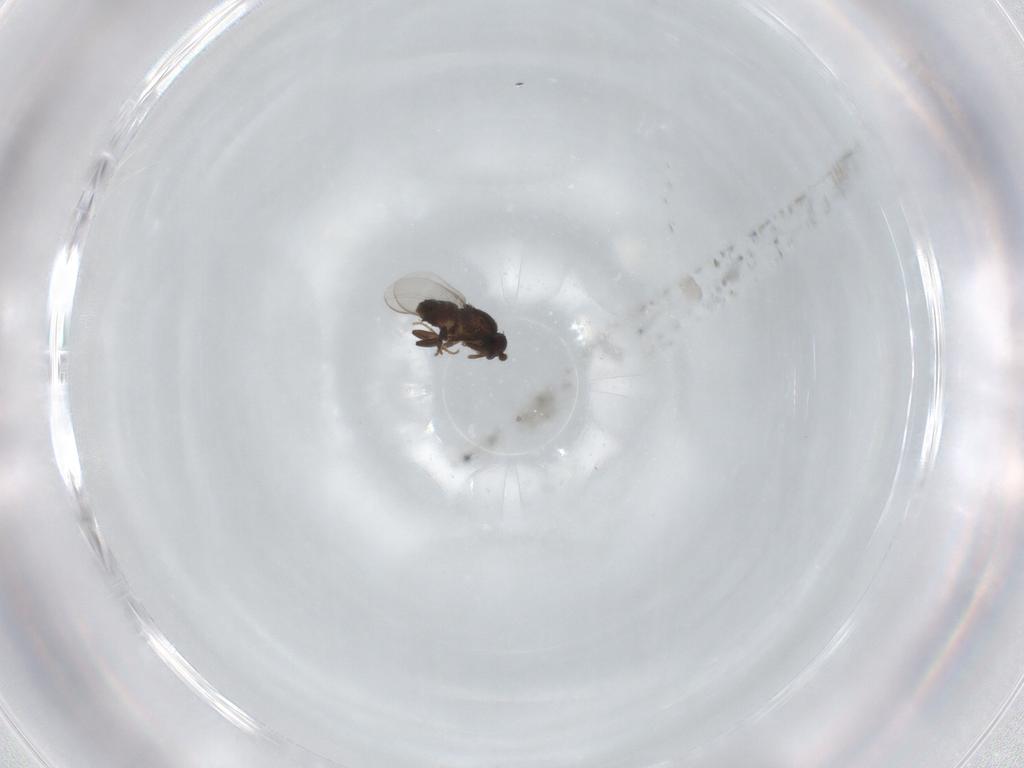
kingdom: Animalia
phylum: Arthropoda
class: Insecta
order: Diptera
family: Sphaeroceridae
